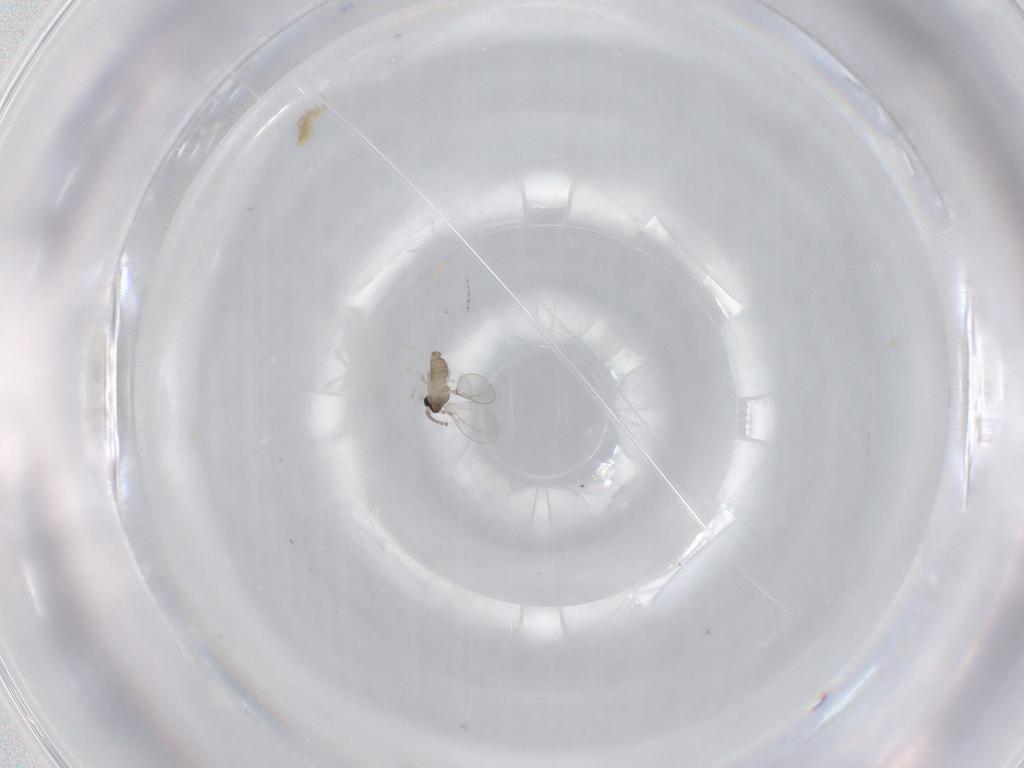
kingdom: Animalia
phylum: Arthropoda
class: Insecta
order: Diptera
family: Cecidomyiidae
